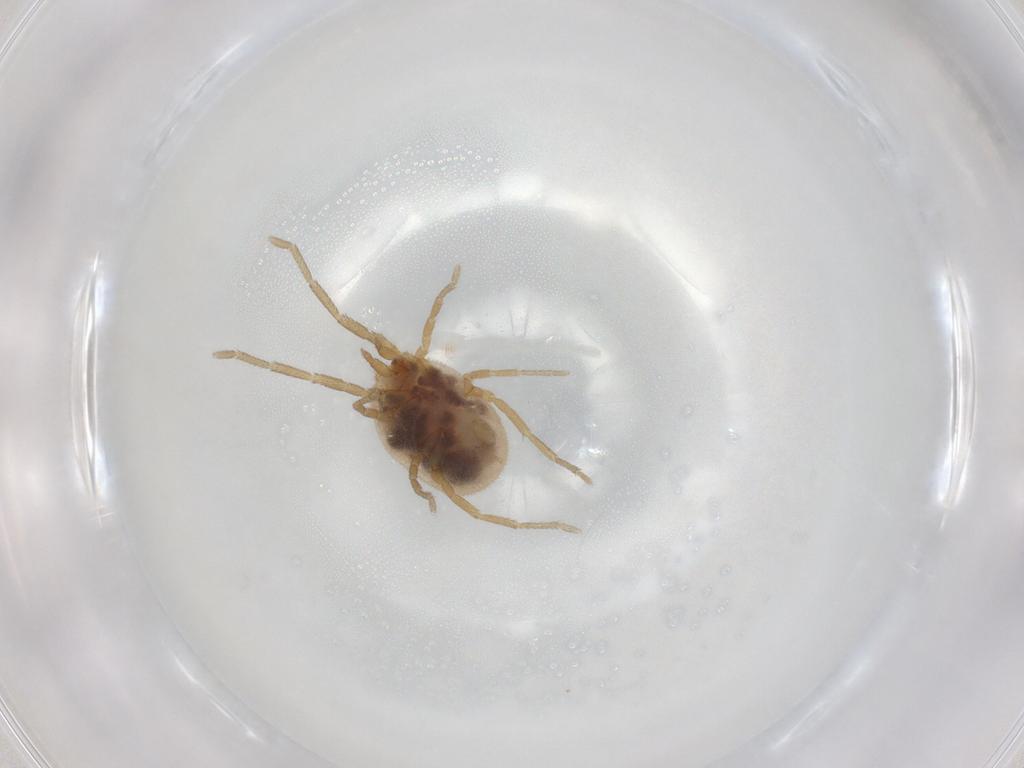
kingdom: Animalia
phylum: Arthropoda
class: Arachnida
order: Trombidiformes
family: Erythraeidae
